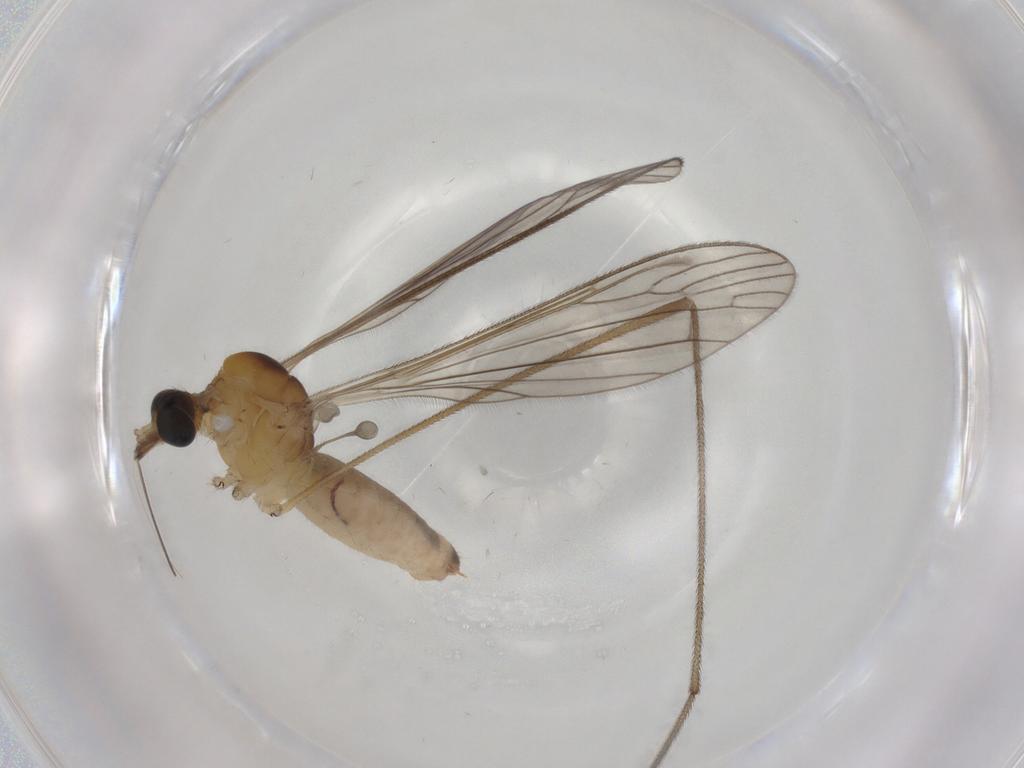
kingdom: Animalia
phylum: Arthropoda
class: Insecta
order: Diptera
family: Limoniidae
